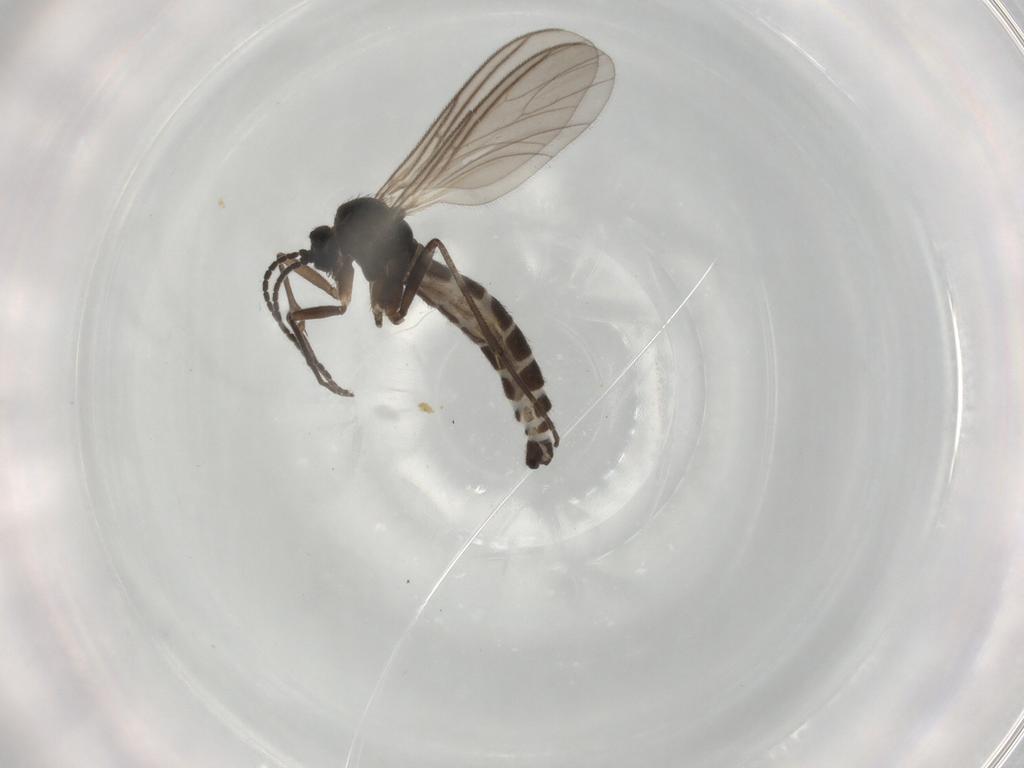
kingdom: Animalia
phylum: Arthropoda
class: Insecta
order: Diptera
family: Sciaridae
